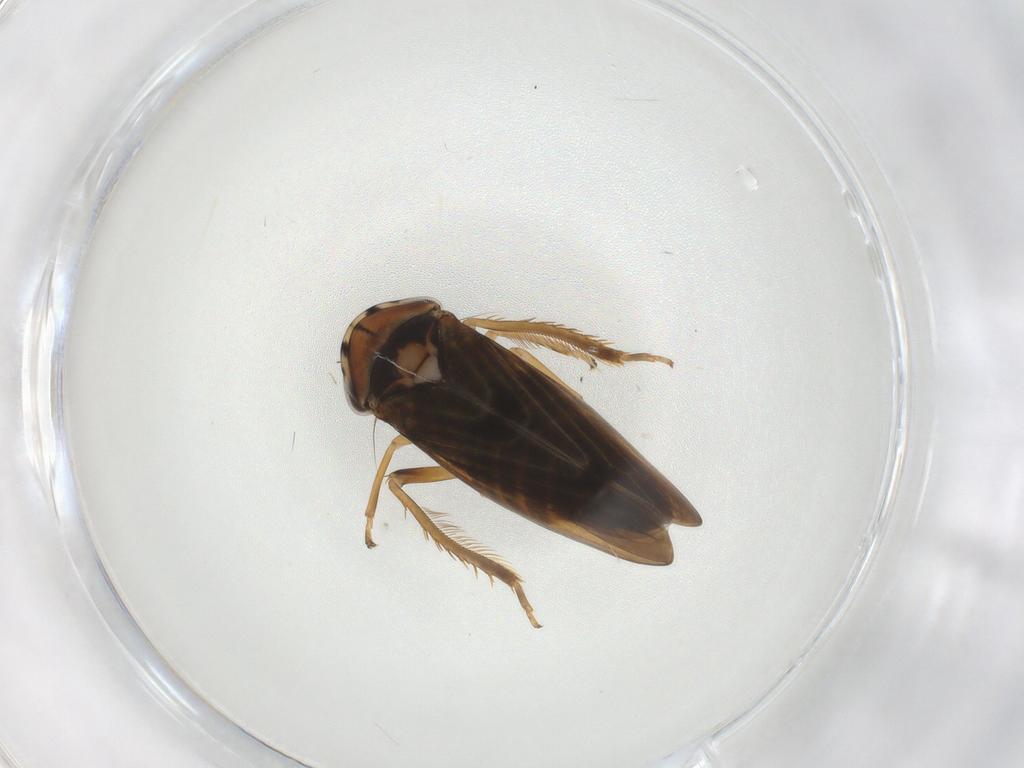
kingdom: Animalia
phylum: Arthropoda
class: Insecta
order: Hemiptera
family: Cicadellidae
